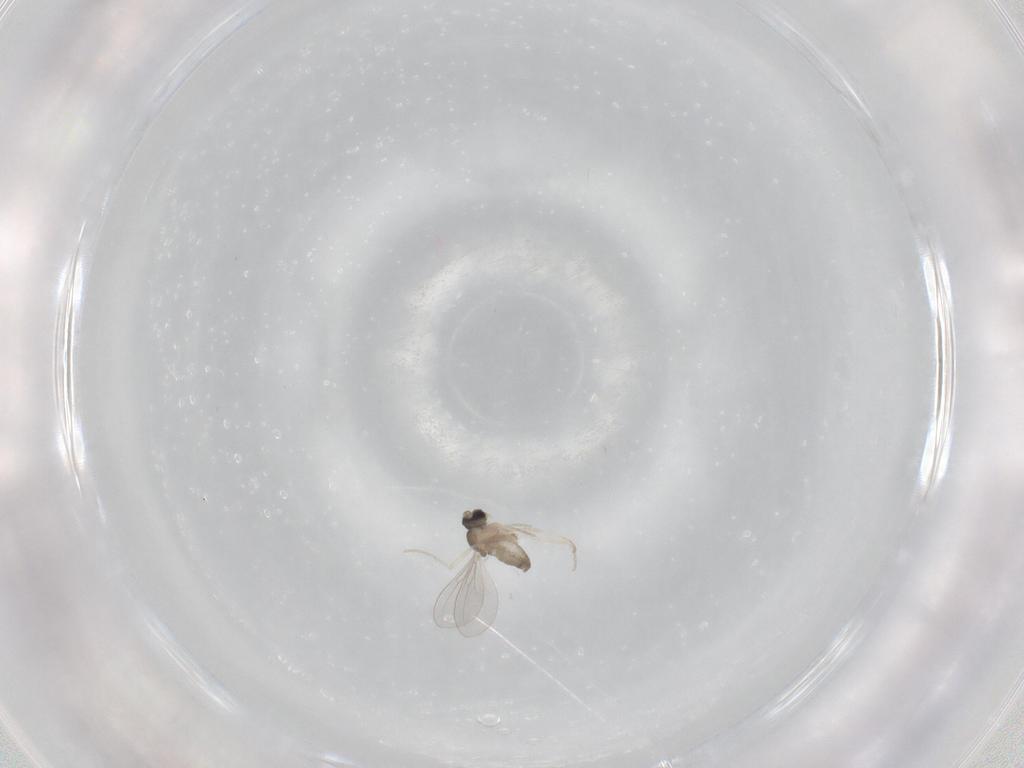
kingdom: Animalia
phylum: Arthropoda
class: Insecta
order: Diptera
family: Cecidomyiidae
